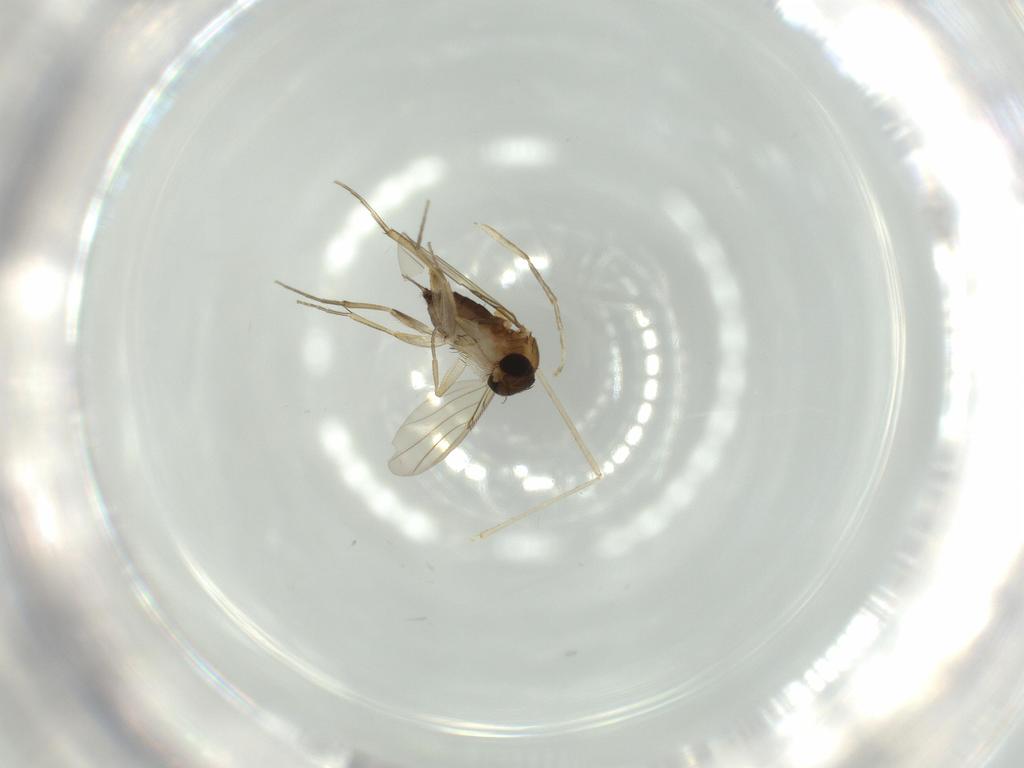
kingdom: Animalia
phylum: Arthropoda
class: Insecta
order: Diptera
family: Phoridae
